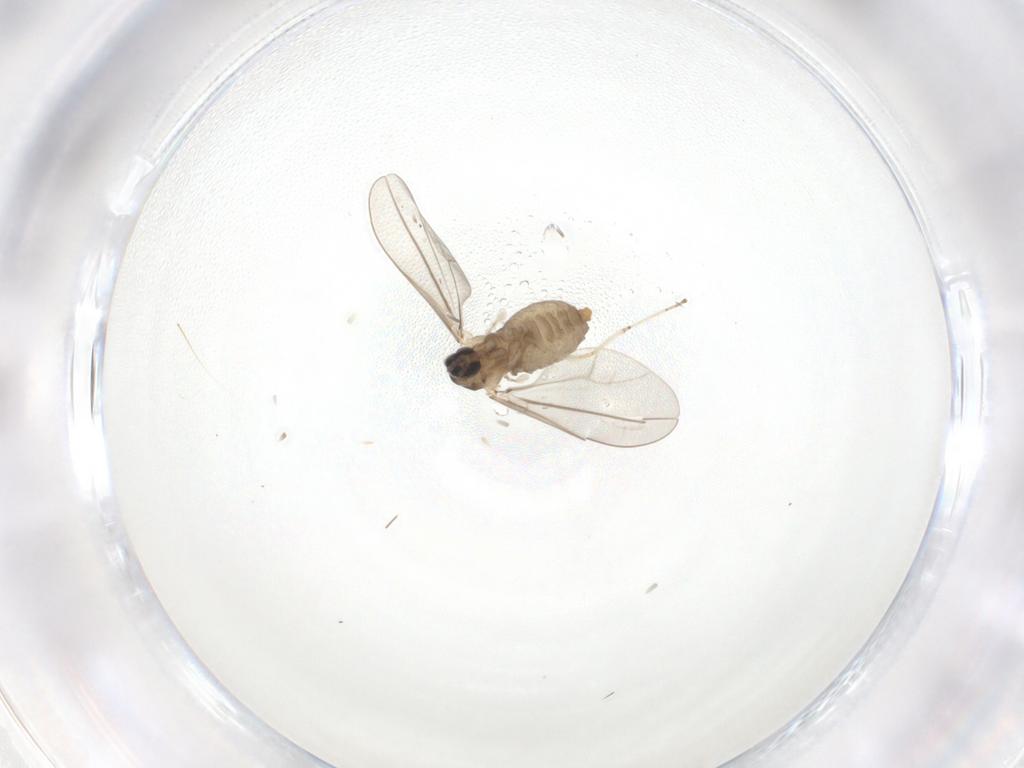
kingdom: Animalia
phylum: Arthropoda
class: Insecta
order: Diptera
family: Cecidomyiidae
